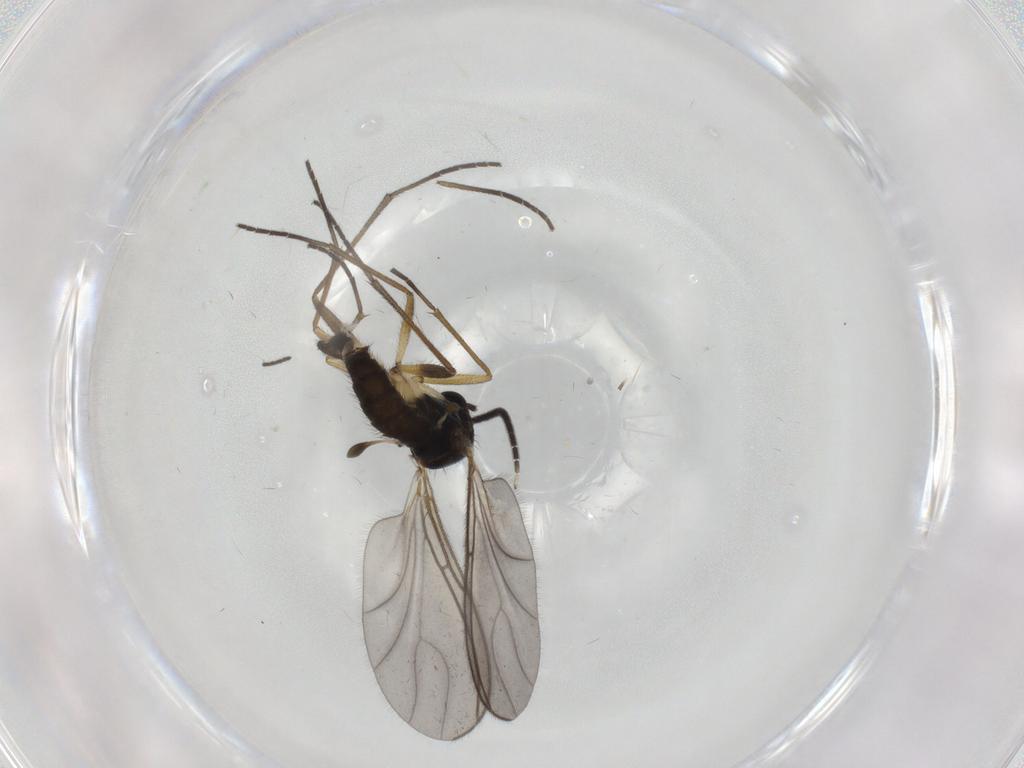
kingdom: Animalia
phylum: Arthropoda
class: Insecta
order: Diptera
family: Sciaridae
